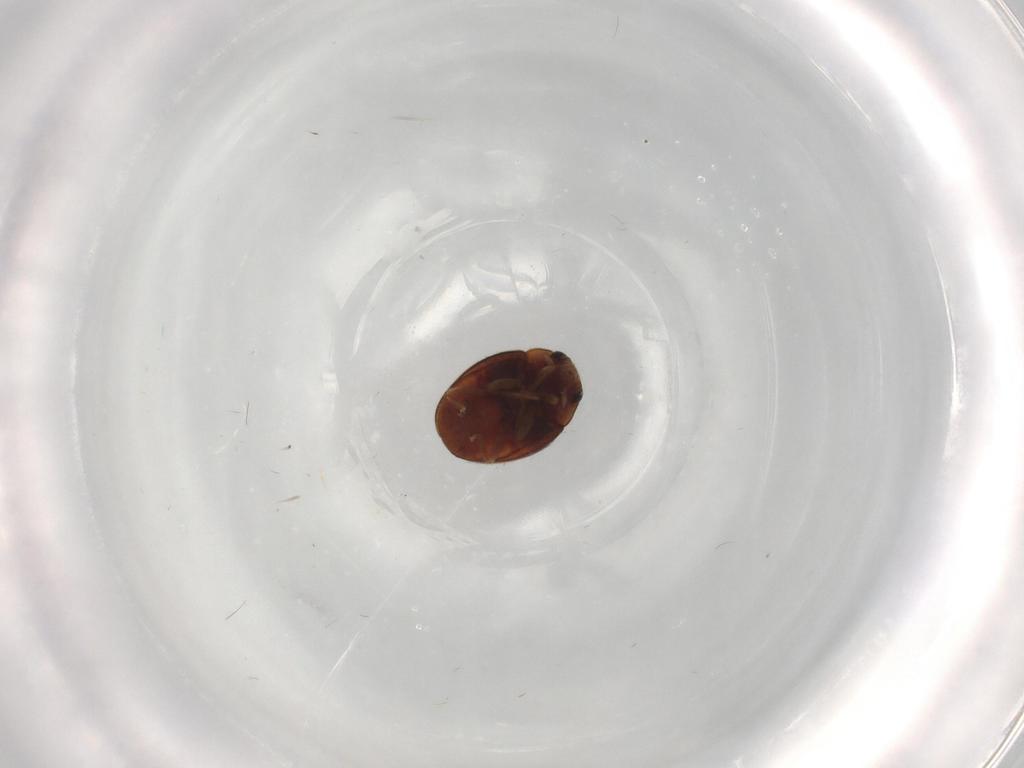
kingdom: Animalia
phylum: Arthropoda
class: Insecta
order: Coleoptera
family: Coccinellidae
